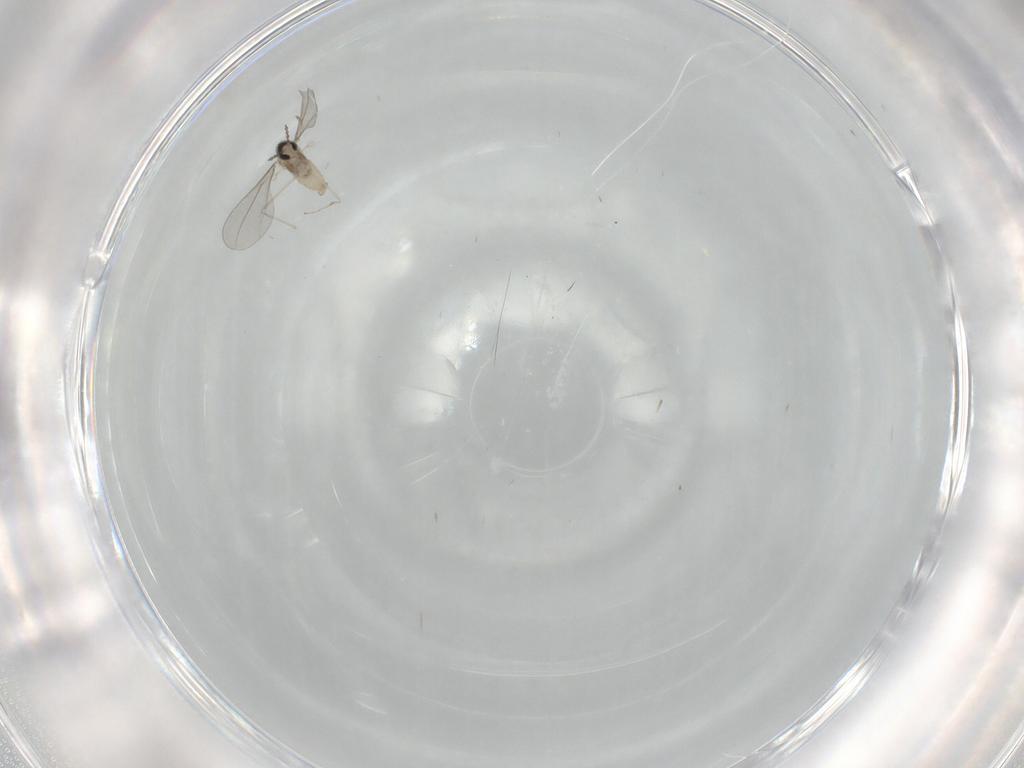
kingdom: Animalia
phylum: Arthropoda
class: Insecta
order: Diptera
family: Cecidomyiidae
